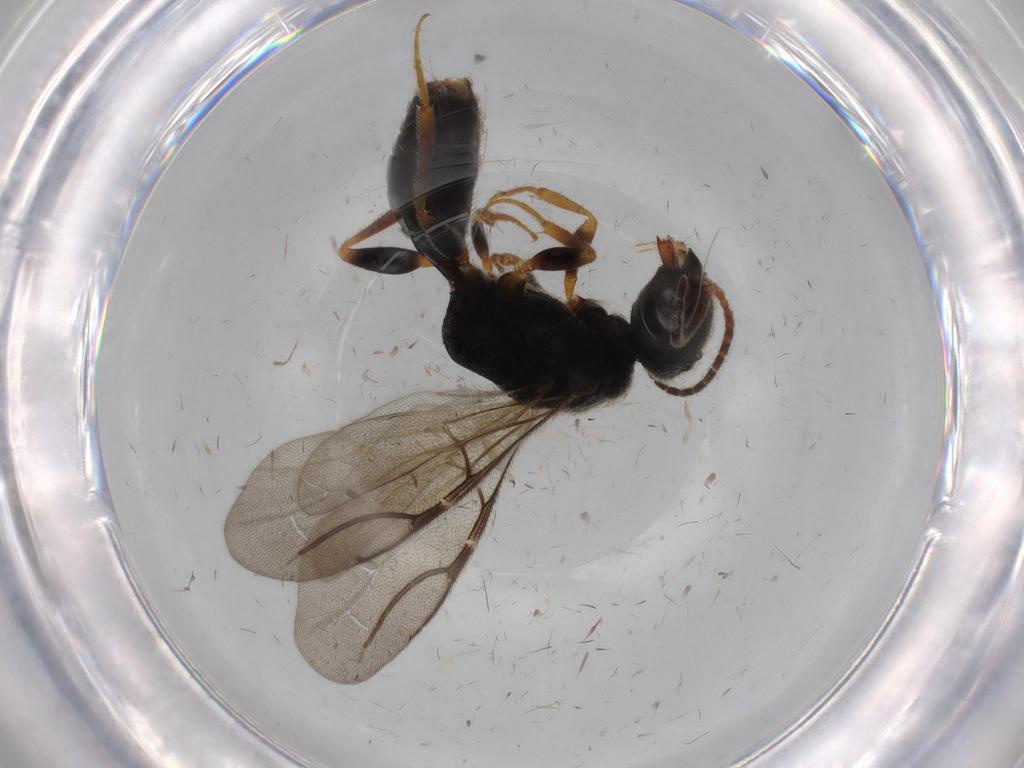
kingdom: Animalia
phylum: Arthropoda
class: Insecta
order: Hymenoptera
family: Bethylidae
